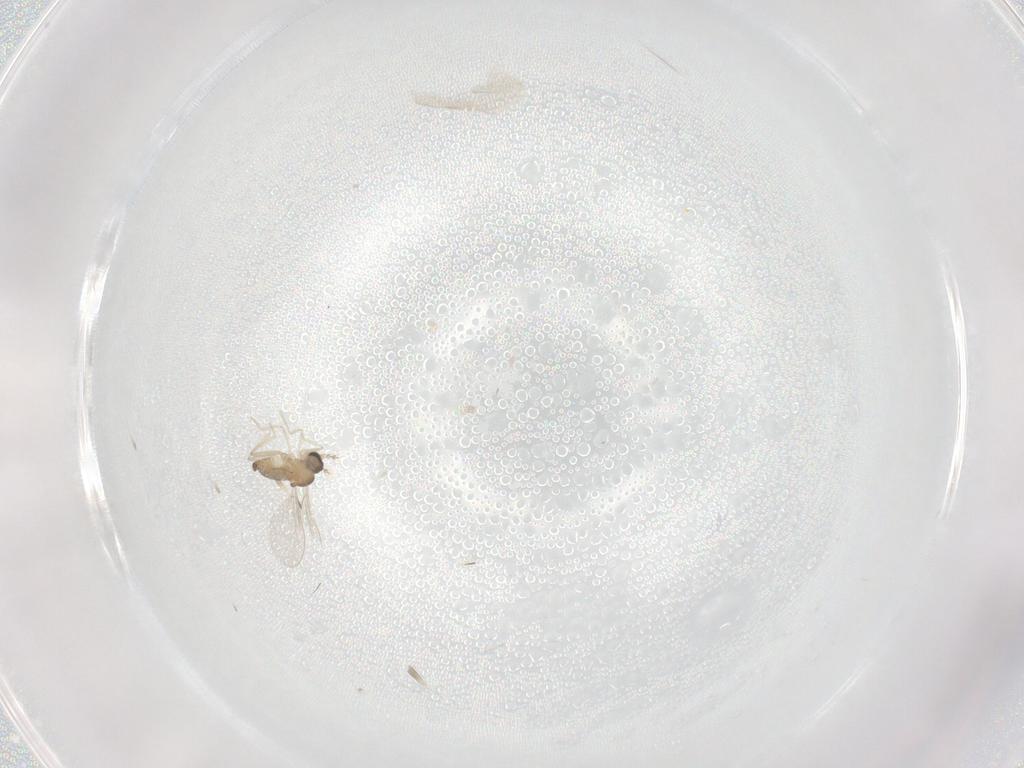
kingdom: Animalia
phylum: Arthropoda
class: Insecta
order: Diptera
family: Cecidomyiidae
